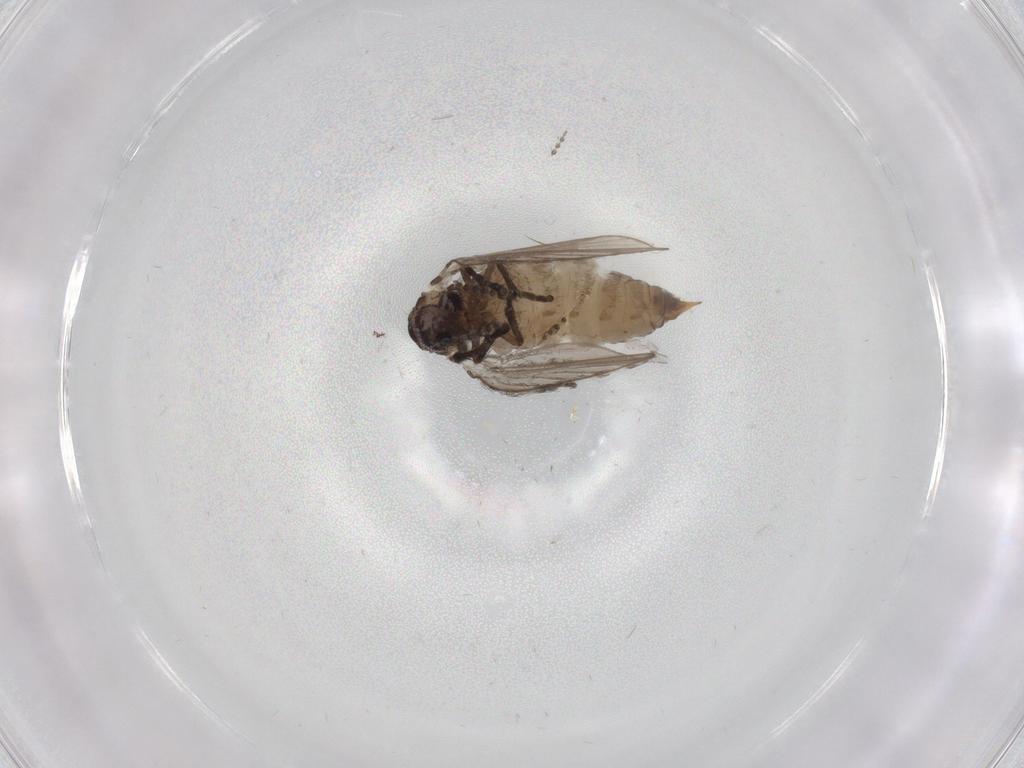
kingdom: Animalia
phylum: Arthropoda
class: Insecta
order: Diptera
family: Psychodidae
